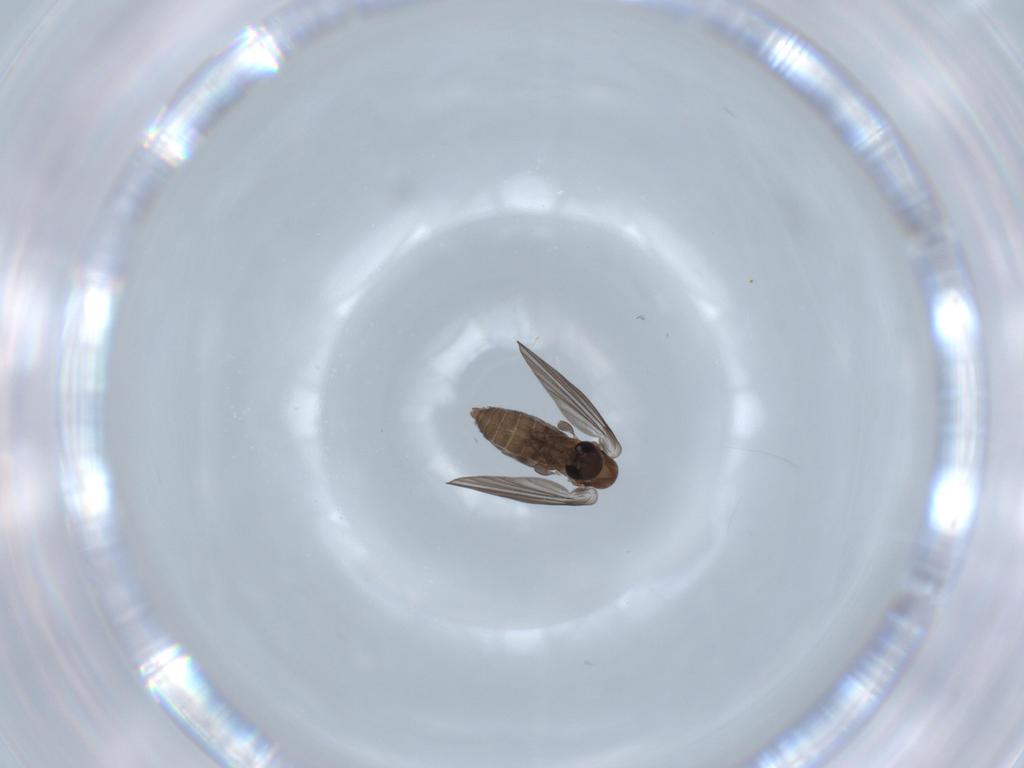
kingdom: Animalia
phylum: Arthropoda
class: Insecta
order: Diptera
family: Psychodidae
